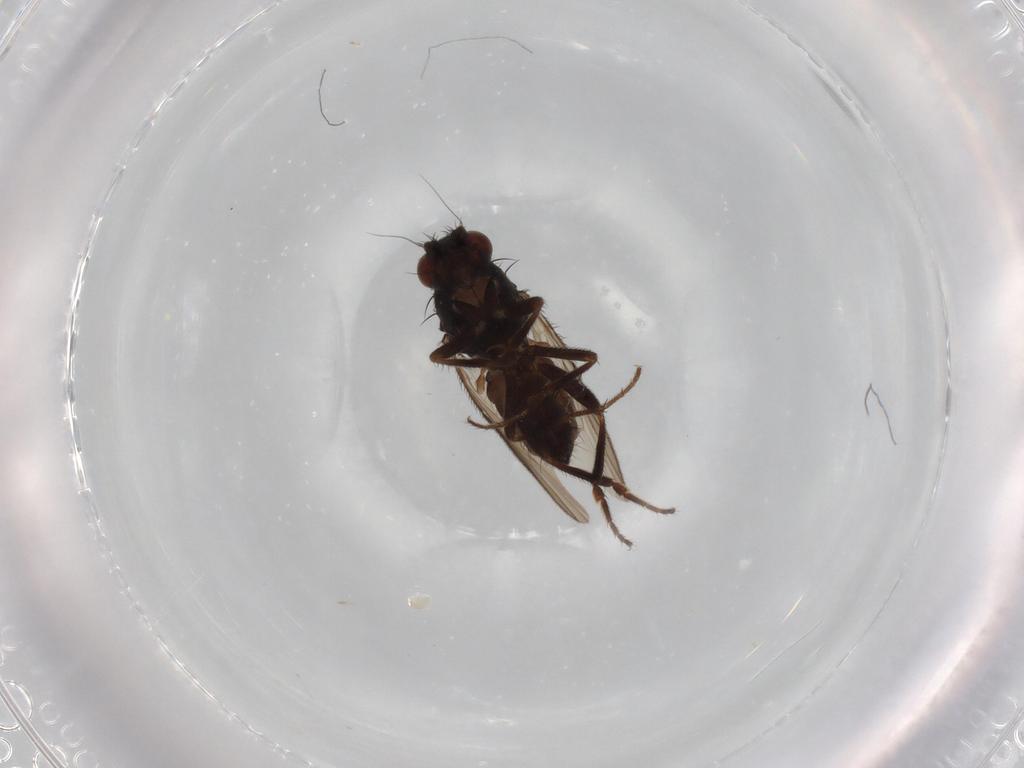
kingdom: Animalia
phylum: Arthropoda
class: Insecta
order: Diptera
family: Sphaeroceridae
